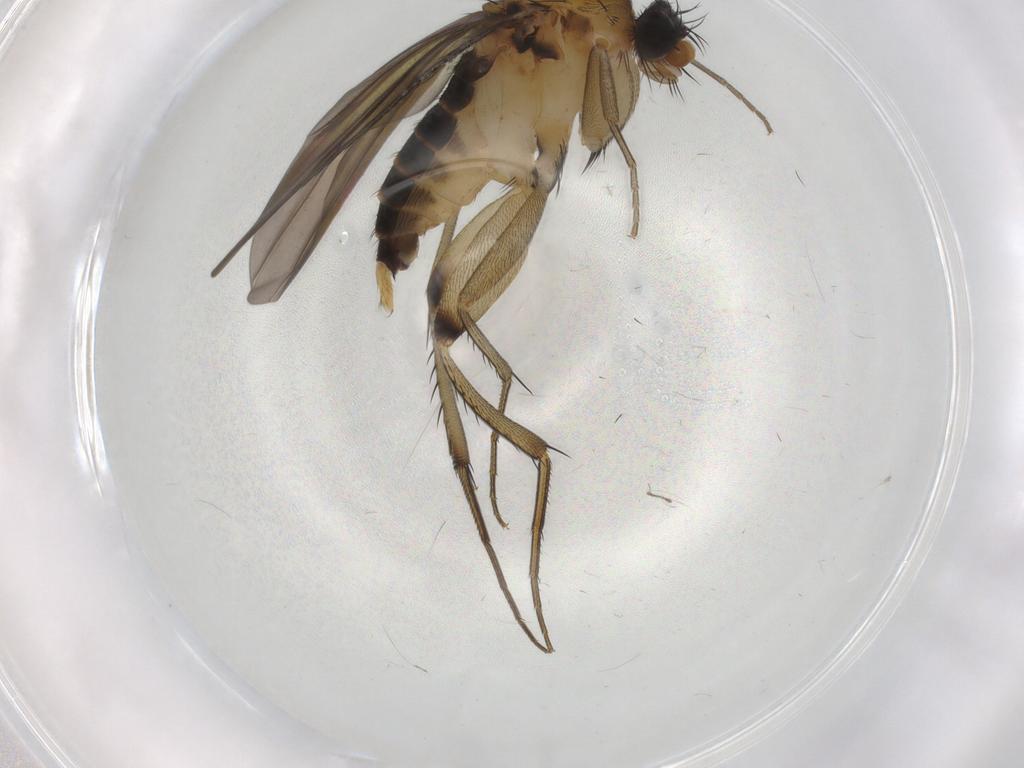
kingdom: Animalia
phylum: Arthropoda
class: Insecta
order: Diptera
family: Phoridae
